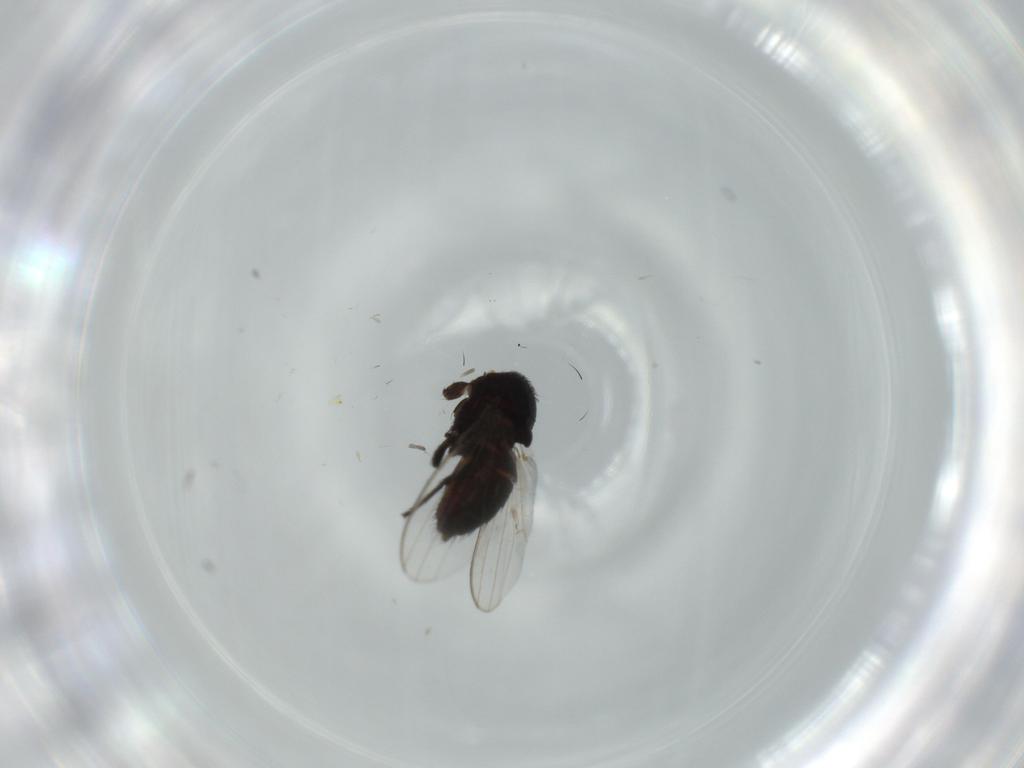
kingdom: Animalia
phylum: Arthropoda
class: Insecta
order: Diptera
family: Chironomidae
